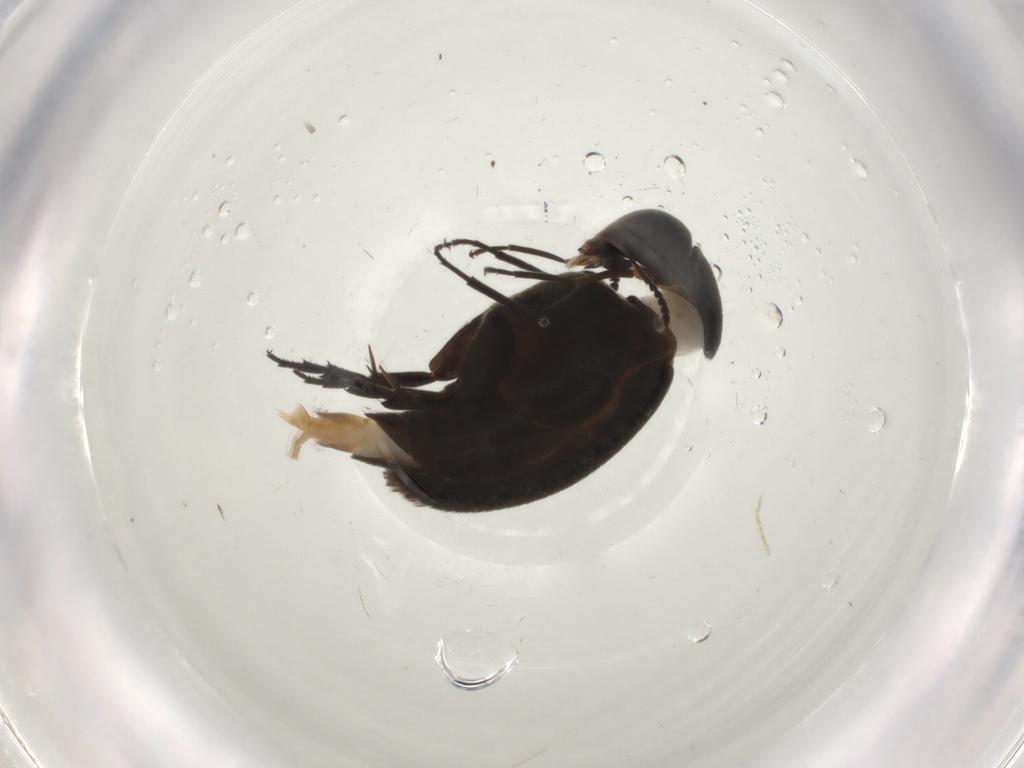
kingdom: Animalia
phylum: Arthropoda
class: Insecta
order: Coleoptera
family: Mordellidae
